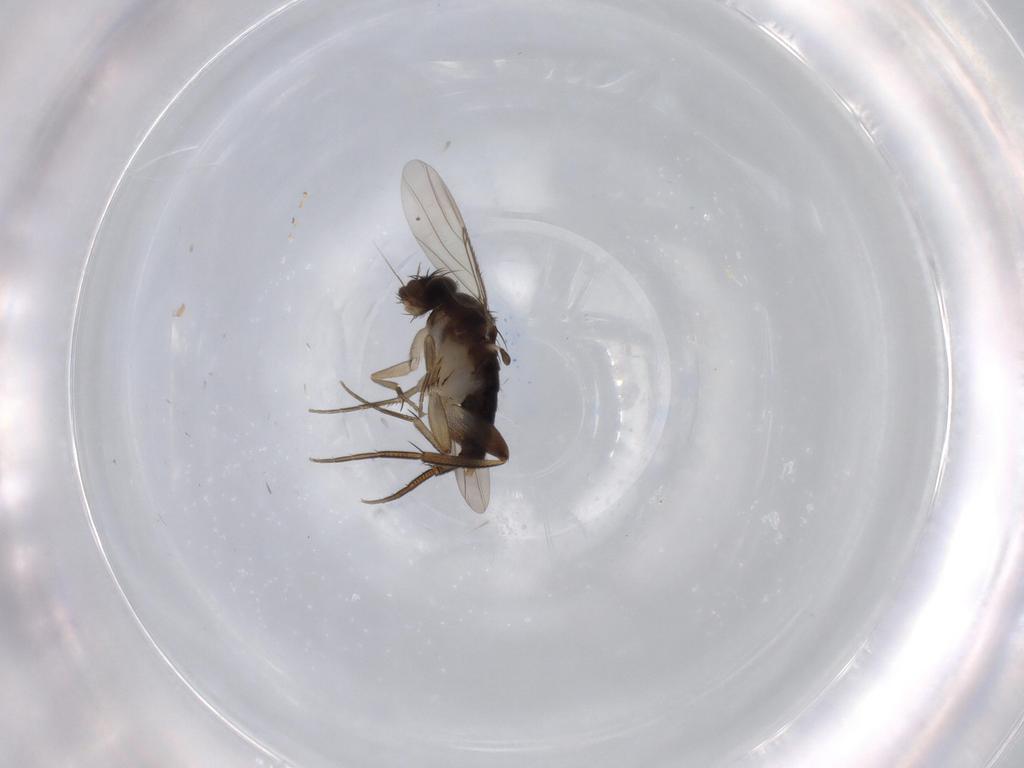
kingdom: Animalia
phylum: Arthropoda
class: Insecta
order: Diptera
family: Phoridae
